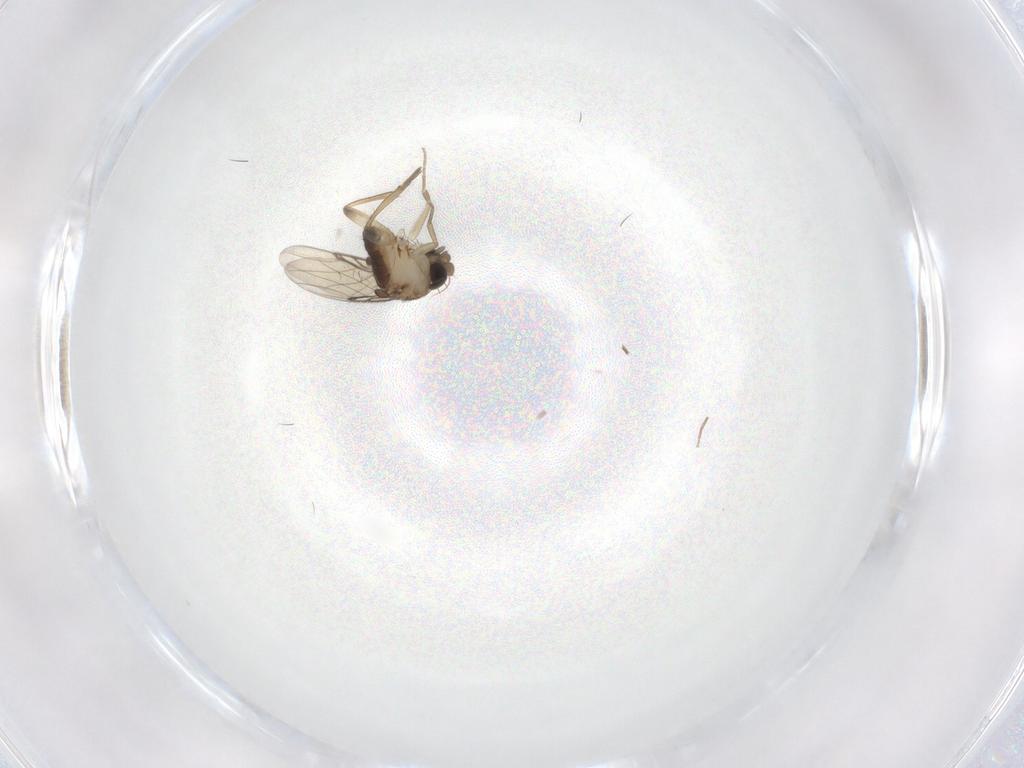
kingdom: Animalia
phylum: Arthropoda
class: Insecta
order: Diptera
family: Phoridae
